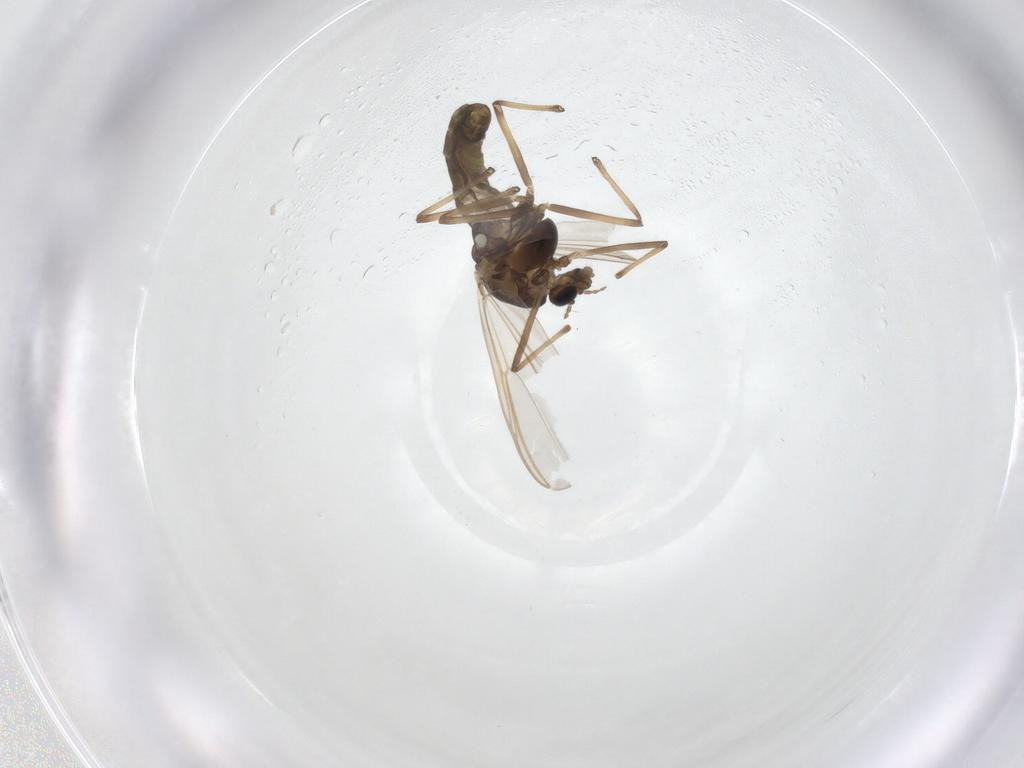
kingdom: Animalia
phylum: Arthropoda
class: Insecta
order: Diptera
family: Chironomidae
